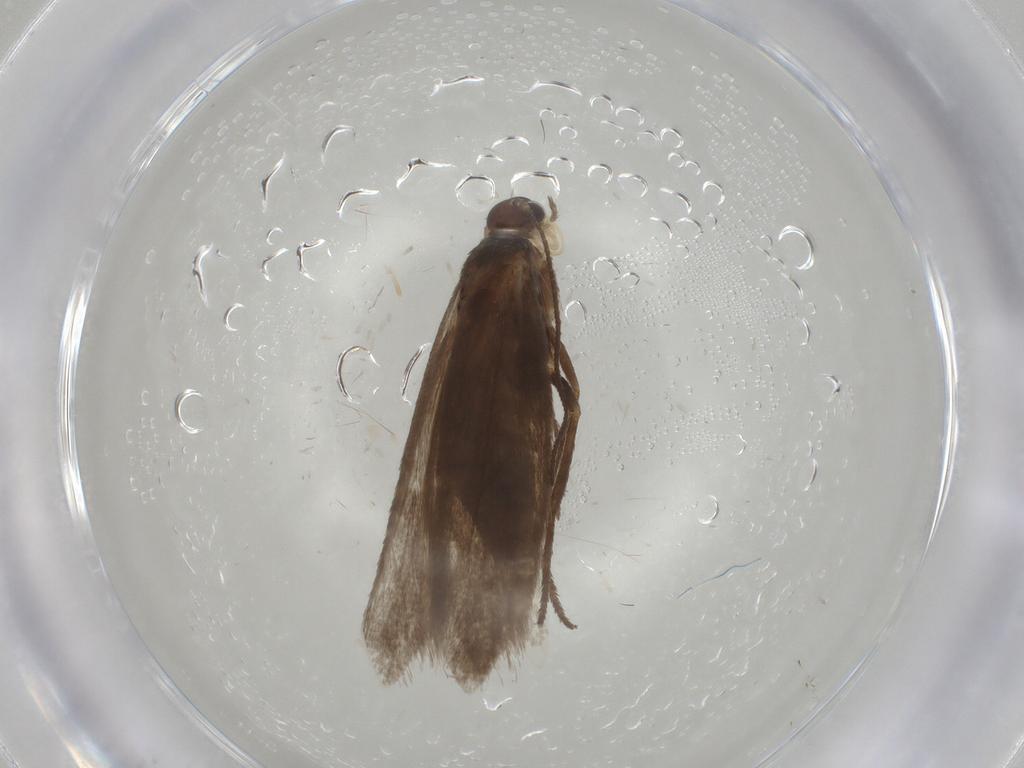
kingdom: Animalia
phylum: Arthropoda
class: Insecta
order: Lepidoptera
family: Limacodidae
